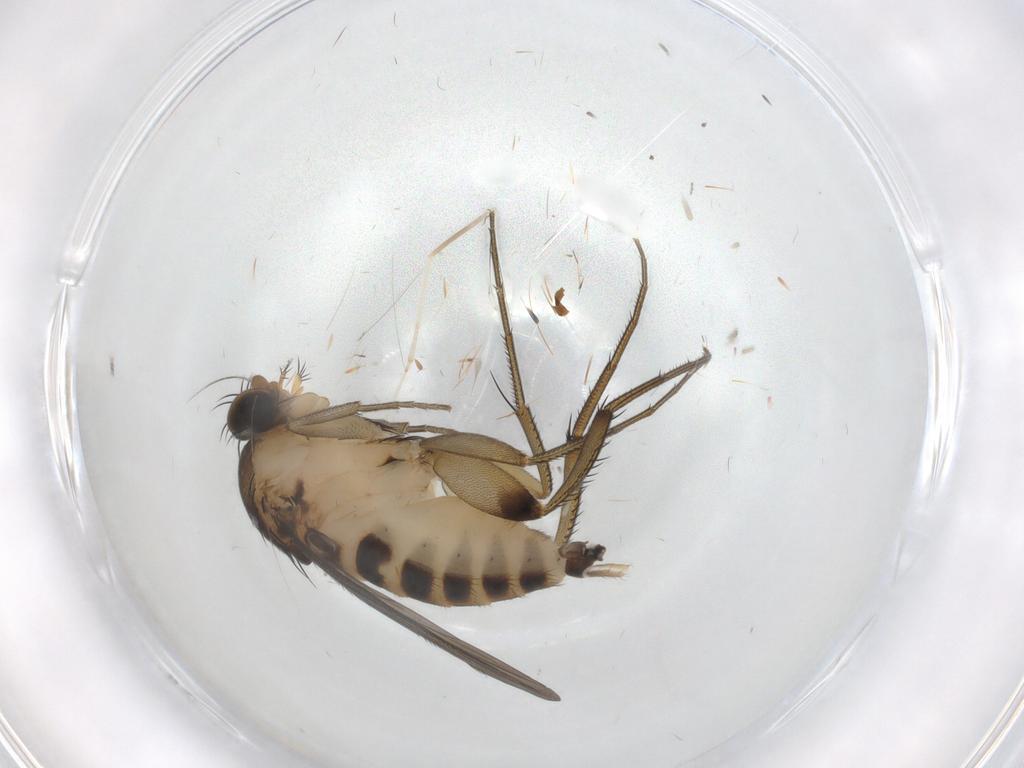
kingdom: Animalia
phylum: Arthropoda
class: Insecta
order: Diptera
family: Phoridae
